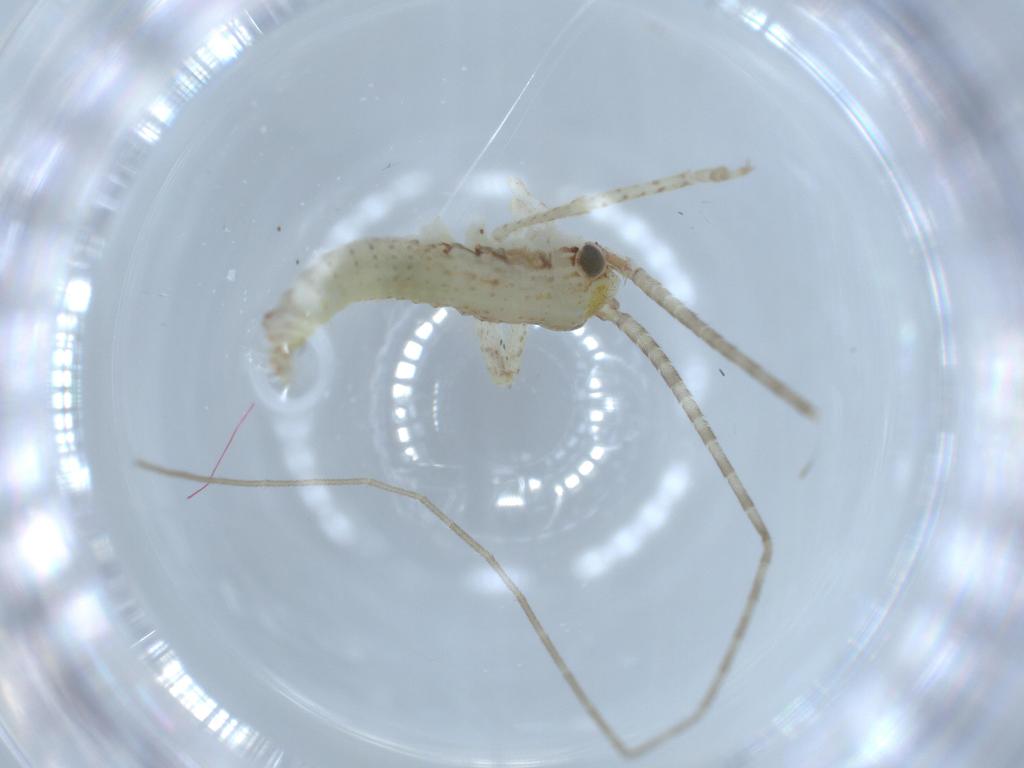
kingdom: Animalia
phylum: Arthropoda
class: Insecta
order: Orthoptera
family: Gryllidae
